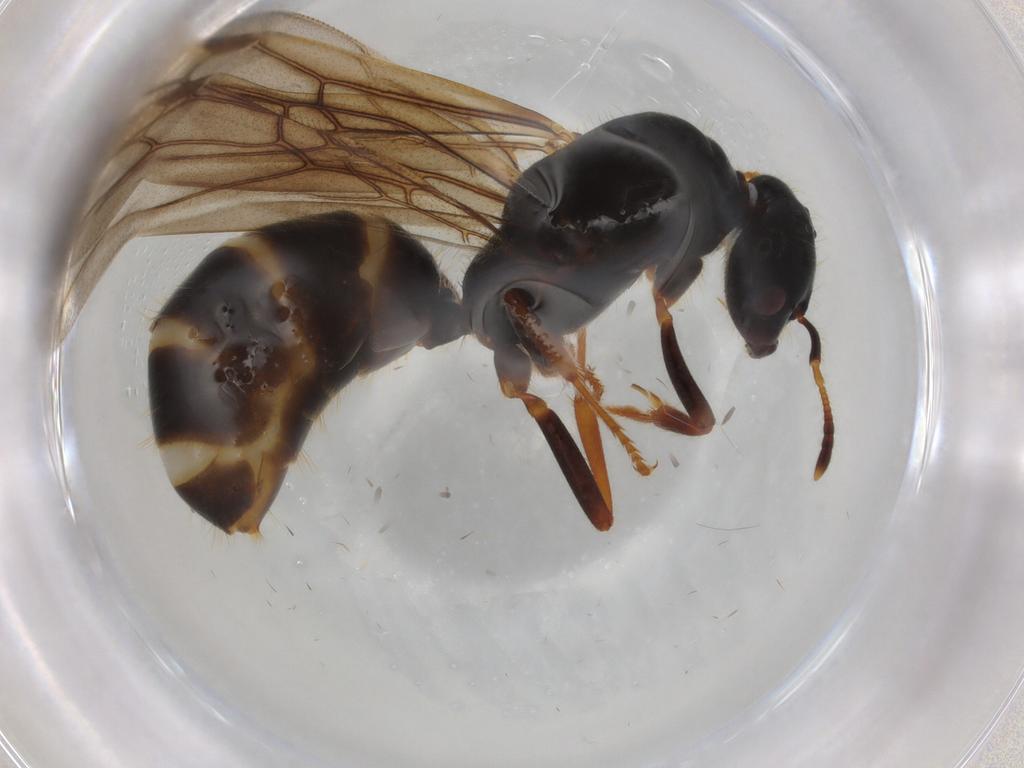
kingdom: Animalia
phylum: Arthropoda
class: Insecta
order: Hymenoptera
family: Formicidae
